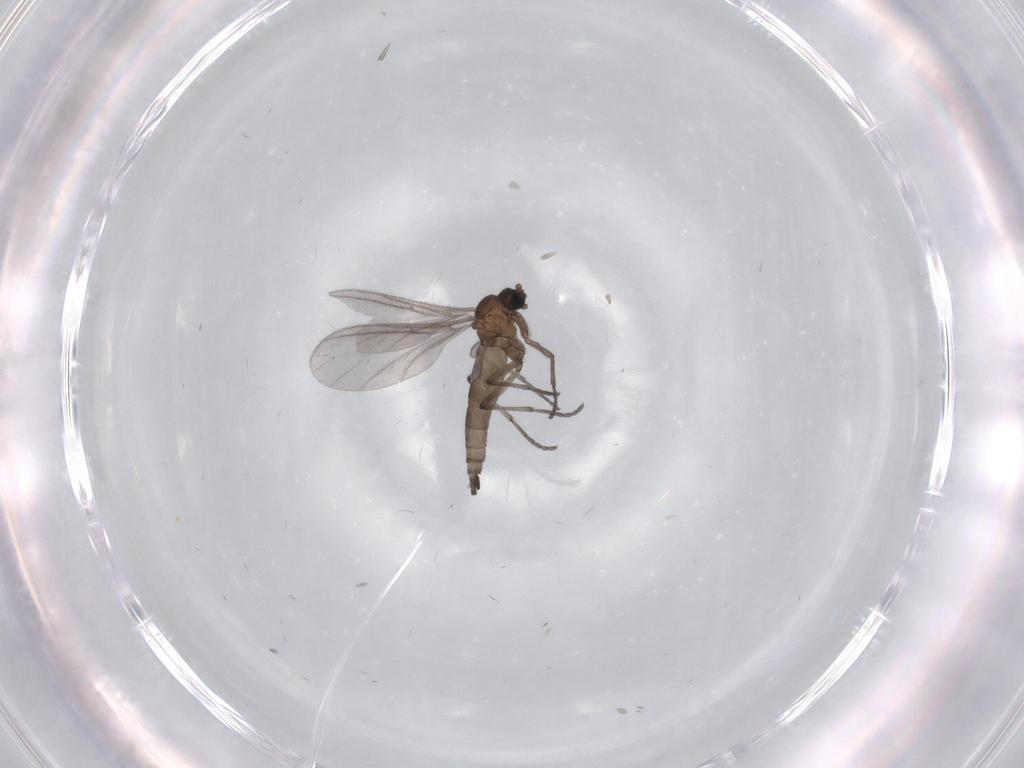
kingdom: Animalia
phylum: Arthropoda
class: Insecta
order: Diptera
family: Sciaridae
